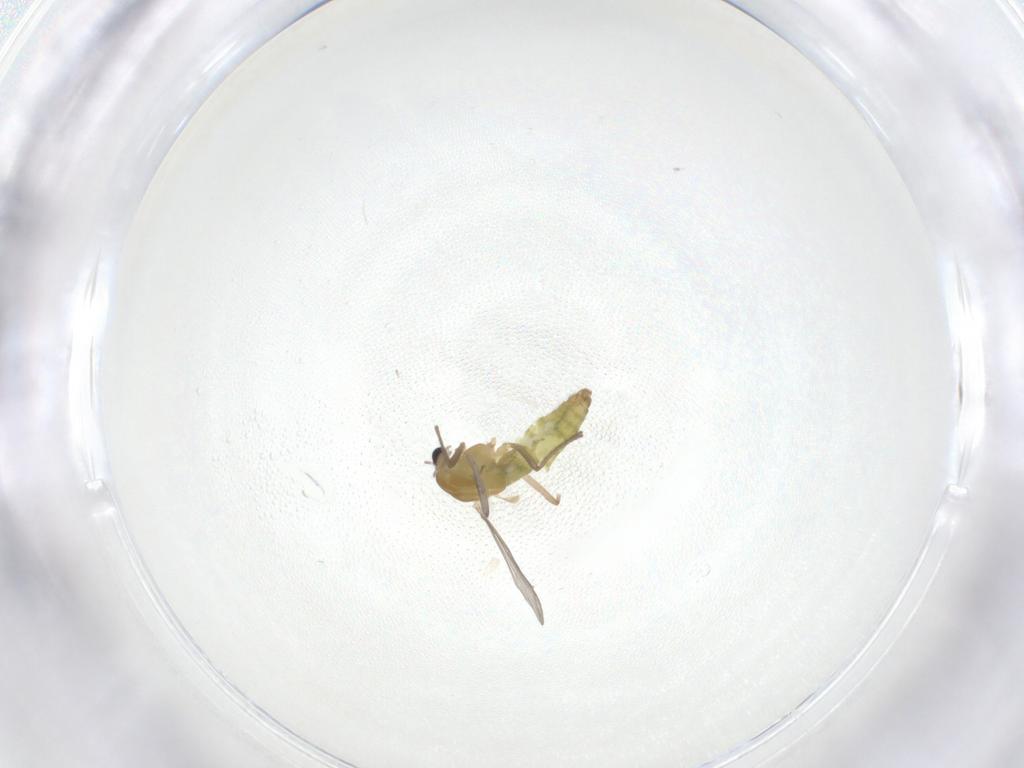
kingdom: Animalia
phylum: Arthropoda
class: Insecta
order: Diptera
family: Chironomidae
